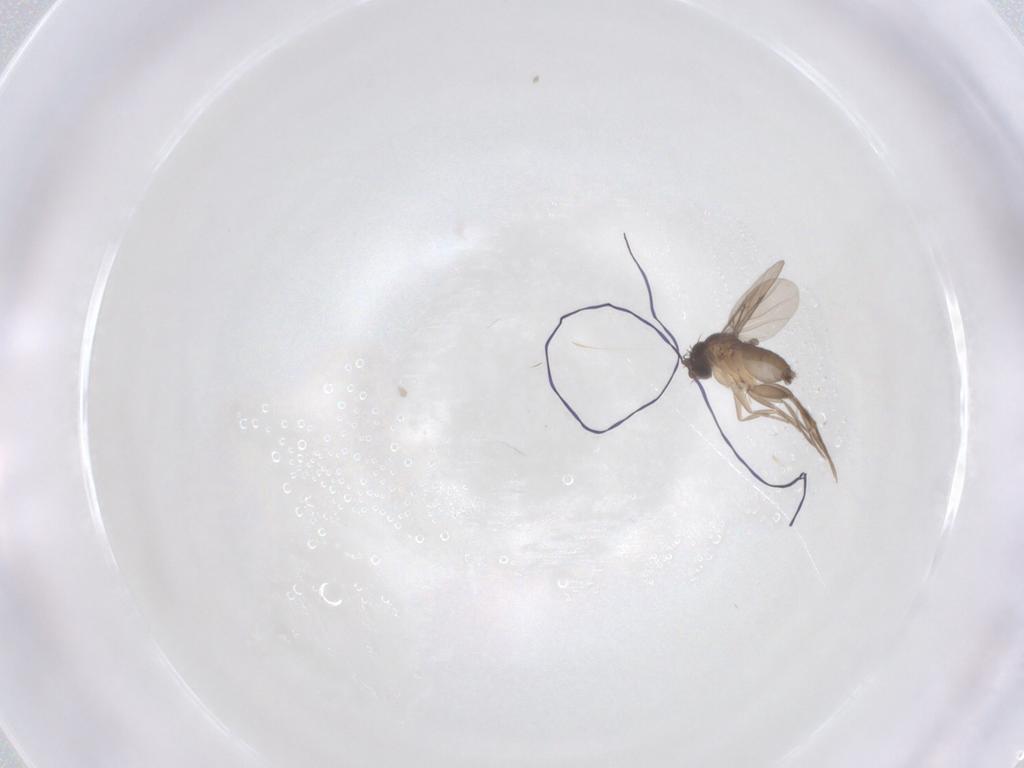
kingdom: Animalia
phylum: Arthropoda
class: Insecta
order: Diptera
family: Phoridae
